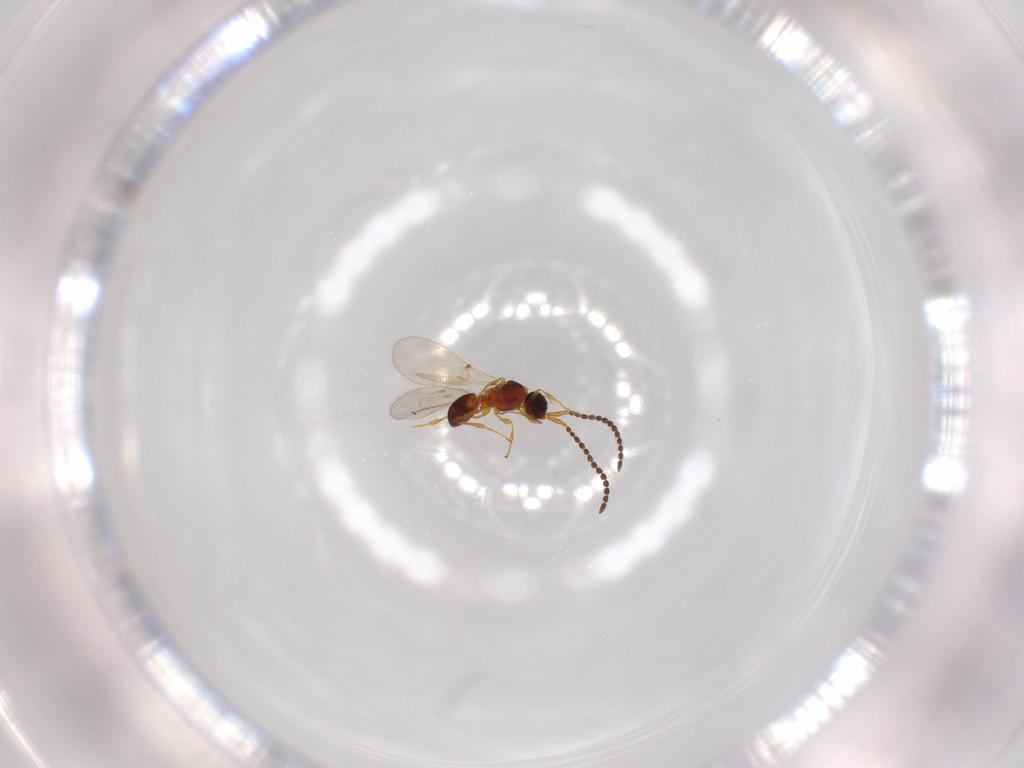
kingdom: Animalia
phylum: Arthropoda
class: Insecta
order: Hymenoptera
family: Diapriidae
